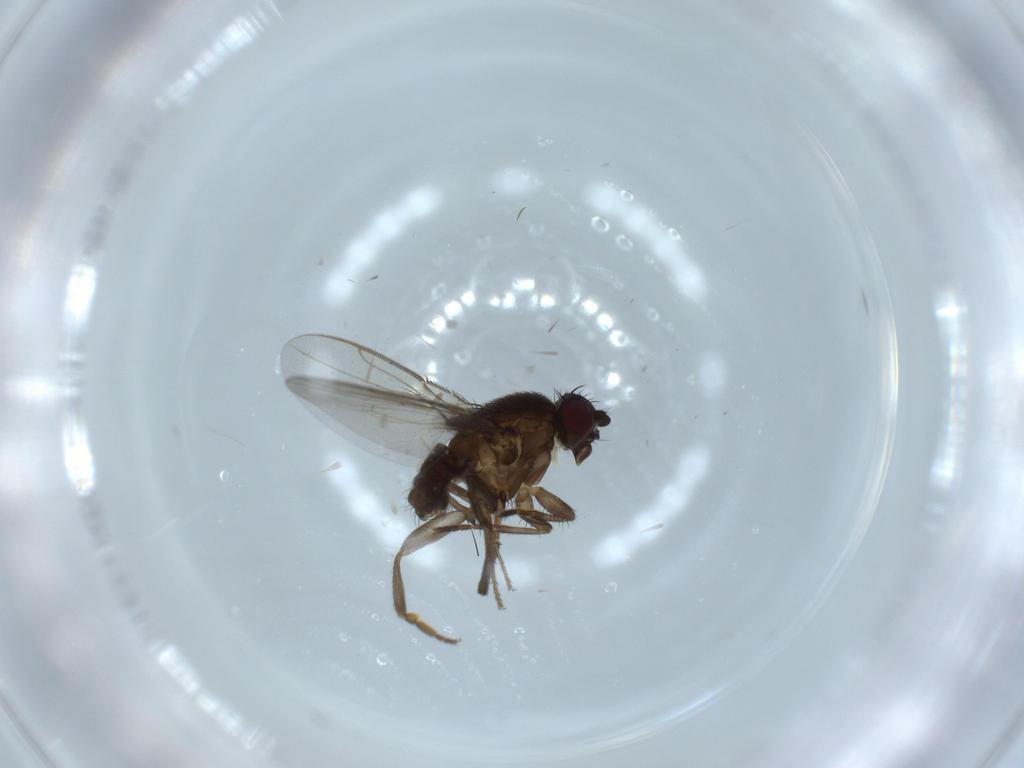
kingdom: Animalia
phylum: Arthropoda
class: Insecta
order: Diptera
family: Sphaeroceridae
